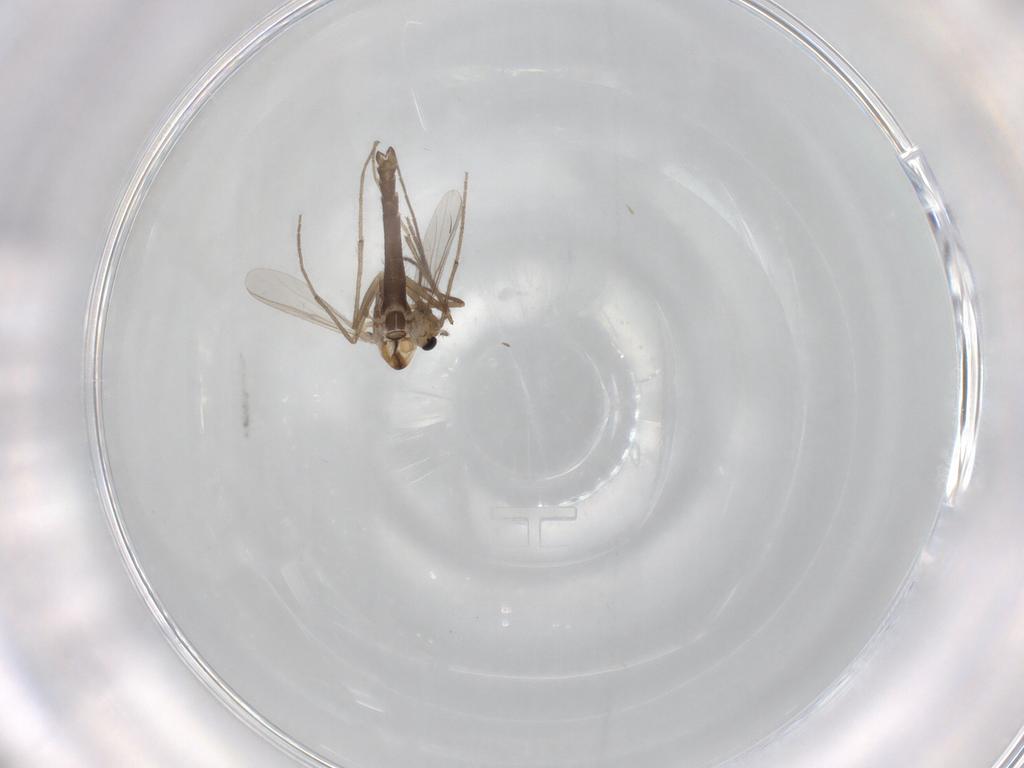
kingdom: Animalia
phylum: Arthropoda
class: Insecta
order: Diptera
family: Chironomidae
